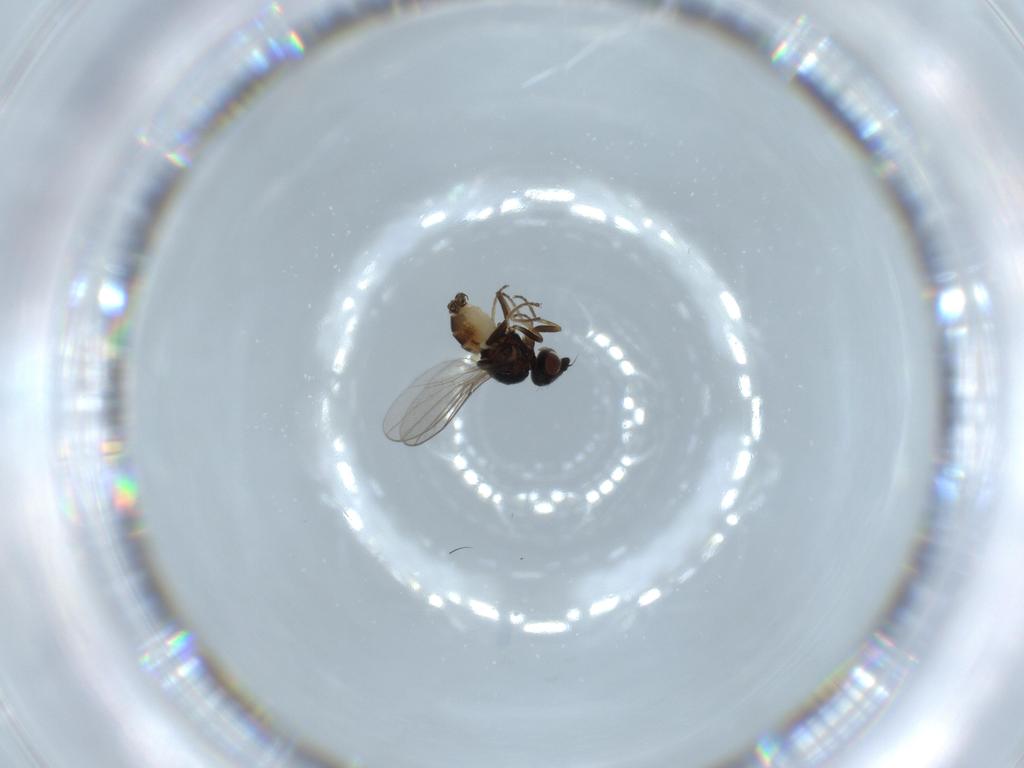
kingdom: Animalia
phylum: Arthropoda
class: Insecta
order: Diptera
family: Chloropidae
